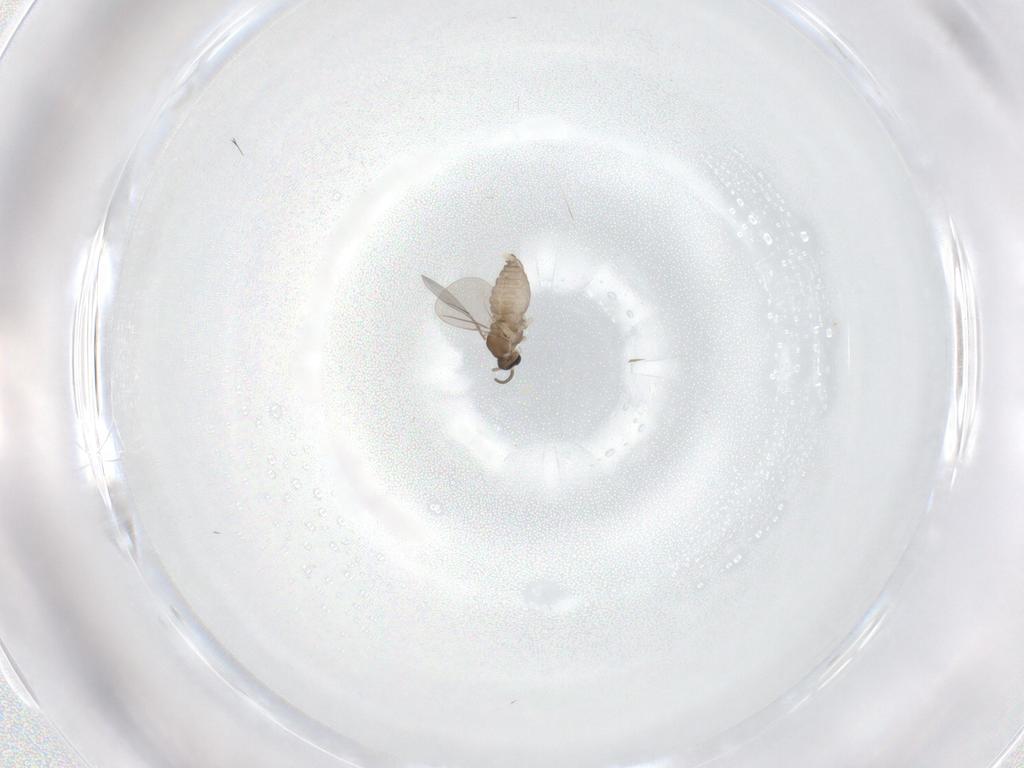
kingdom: Animalia
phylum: Arthropoda
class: Insecta
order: Diptera
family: Cecidomyiidae
